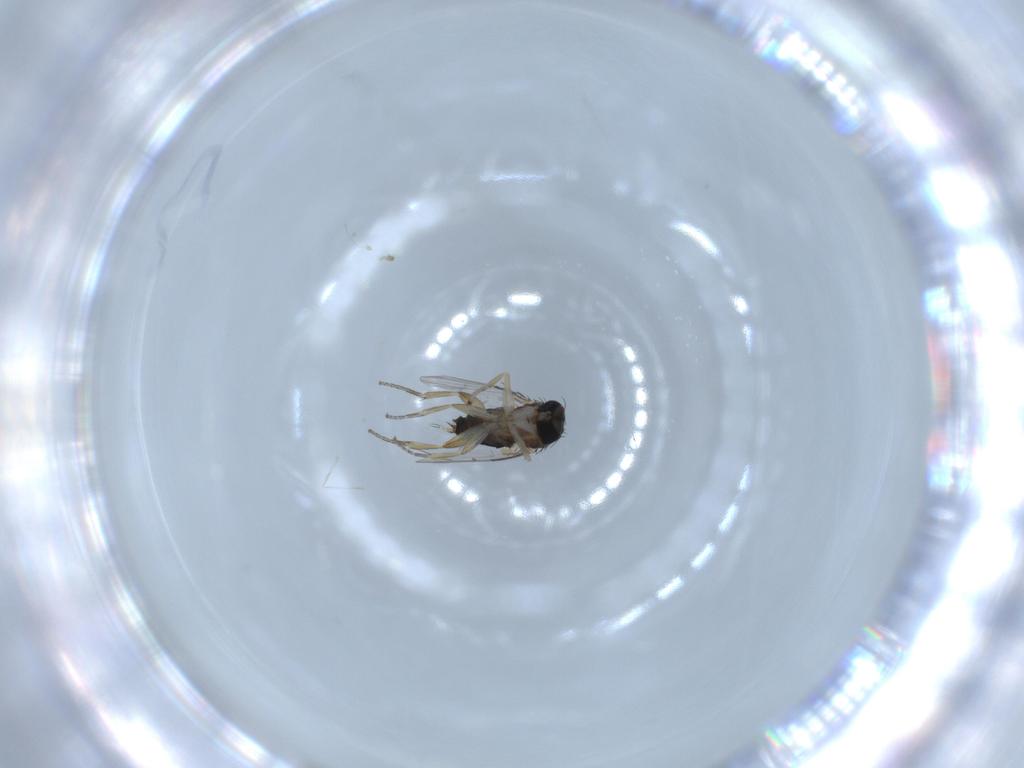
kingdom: Animalia
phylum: Arthropoda
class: Insecta
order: Diptera
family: Phoridae
